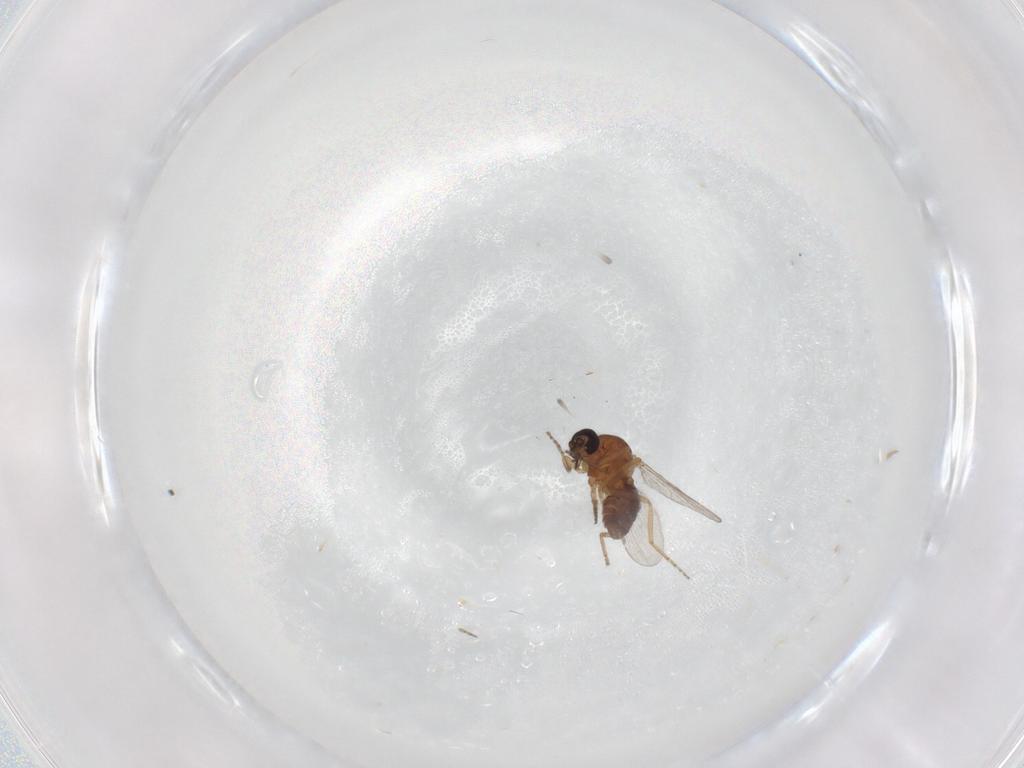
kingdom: Animalia
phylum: Arthropoda
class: Insecta
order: Diptera
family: Ceratopogonidae
